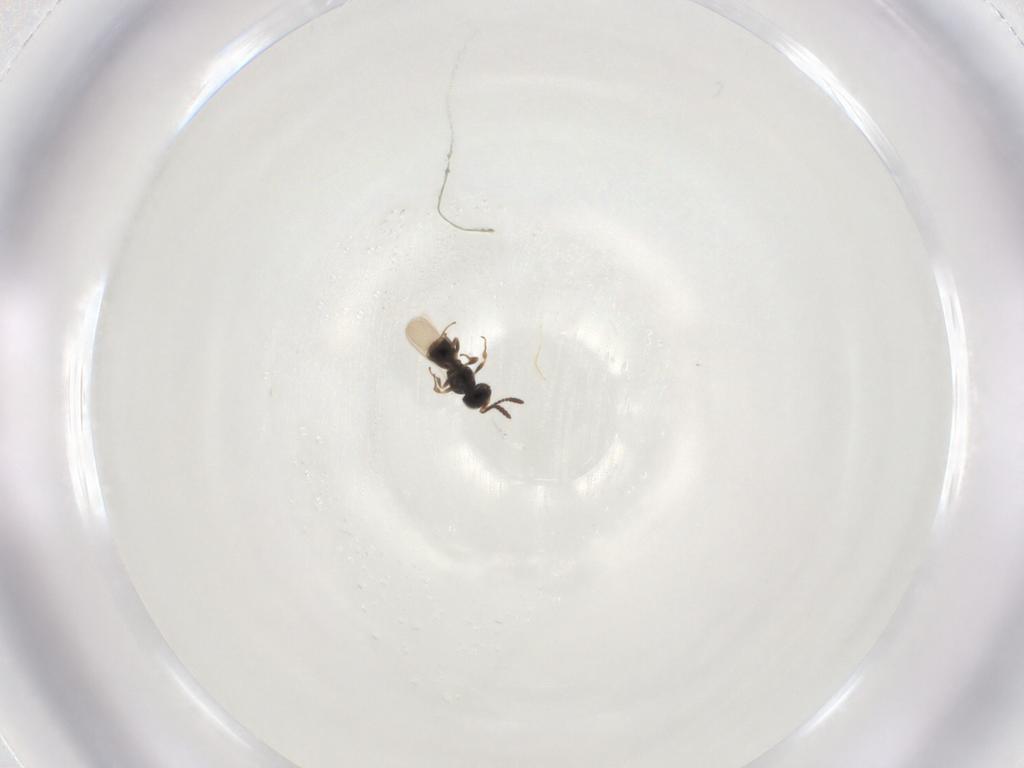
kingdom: Animalia
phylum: Arthropoda
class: Insecta
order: Hymenoptera
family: Scelionidae
